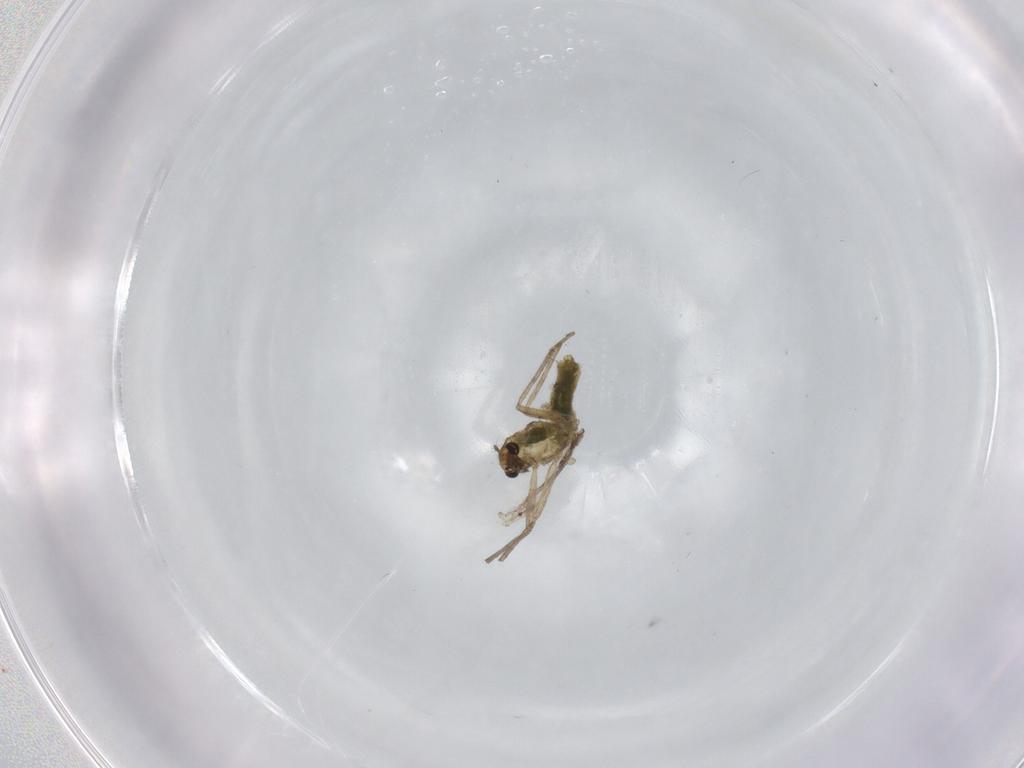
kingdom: Animalia
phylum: Arthropoda
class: Insecta
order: Diptera
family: Chironomidae
